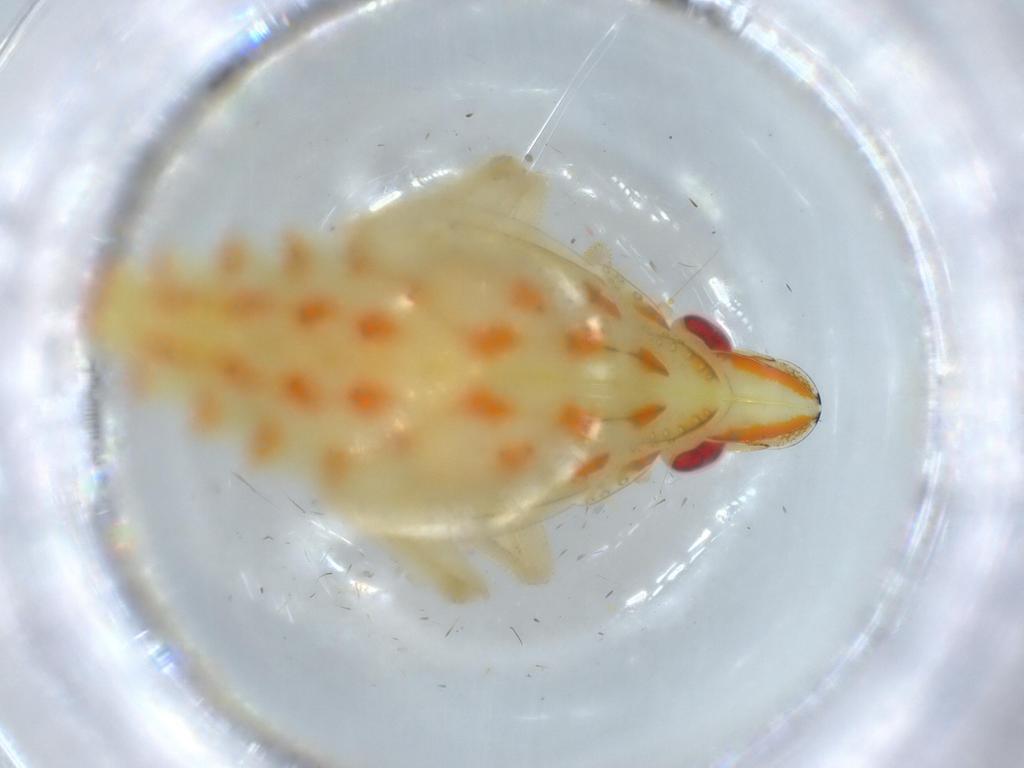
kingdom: Animalia
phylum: Arthropoda
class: Insecta
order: Hemiptera
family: Tropiduchidae
